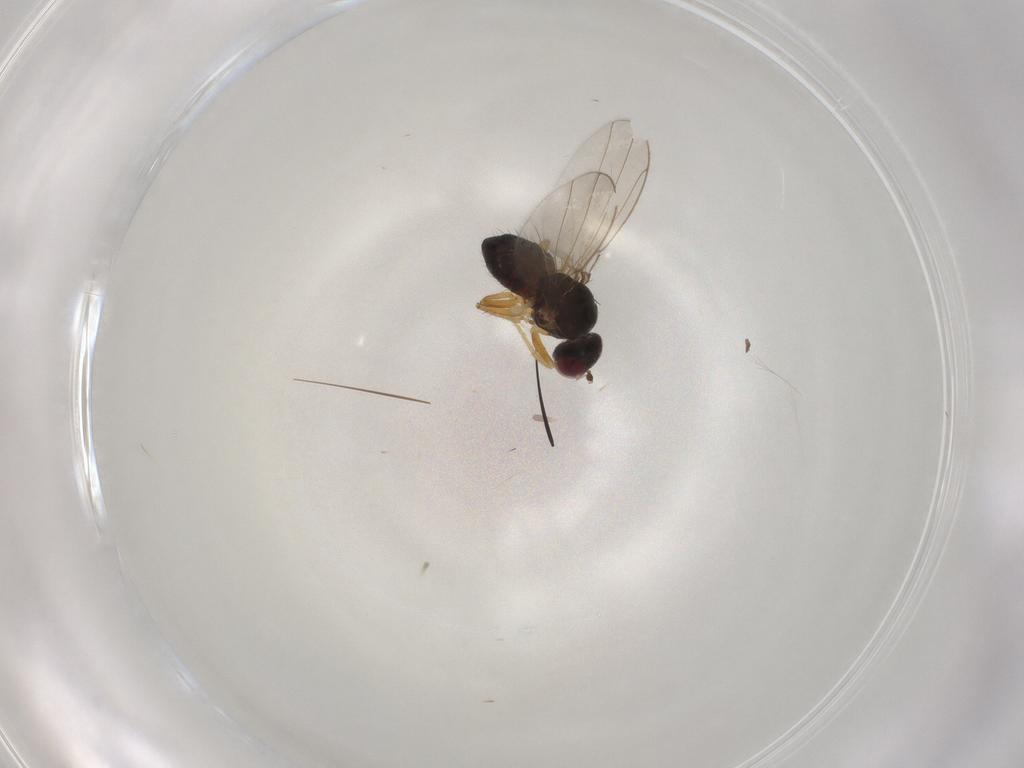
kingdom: Animalia
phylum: Arthropoda
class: Insecta
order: Diptera
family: Ephydridae
